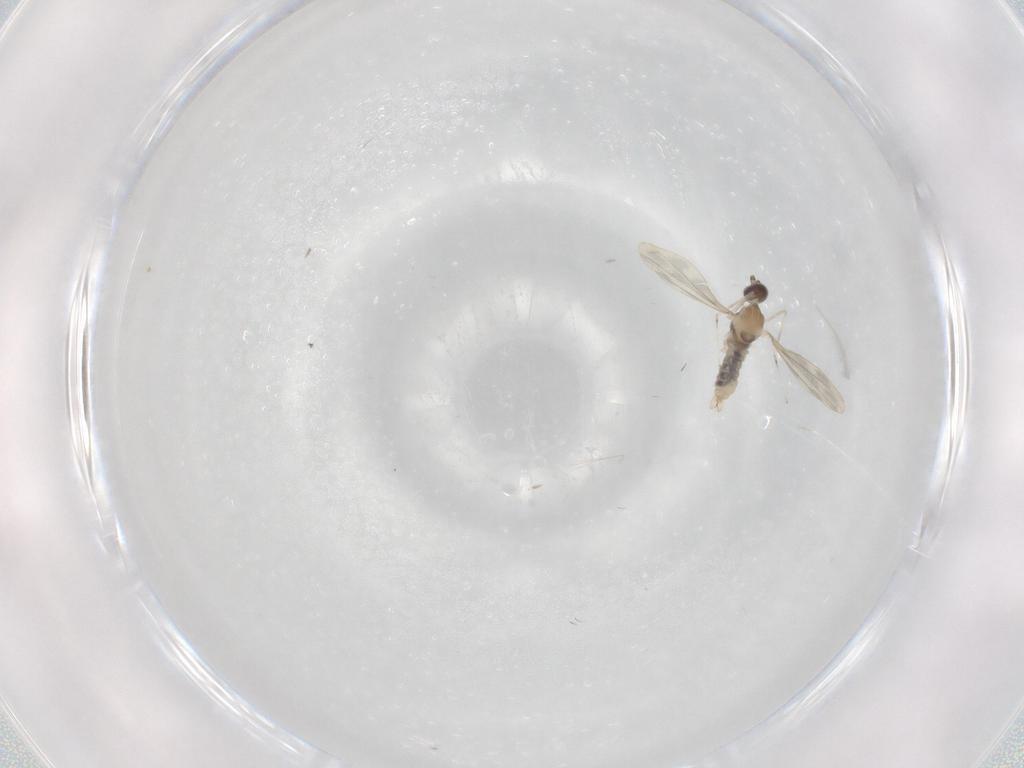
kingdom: Animalia
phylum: Arthropoda
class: Insecta
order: Diptera
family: Cecidomyiidae
